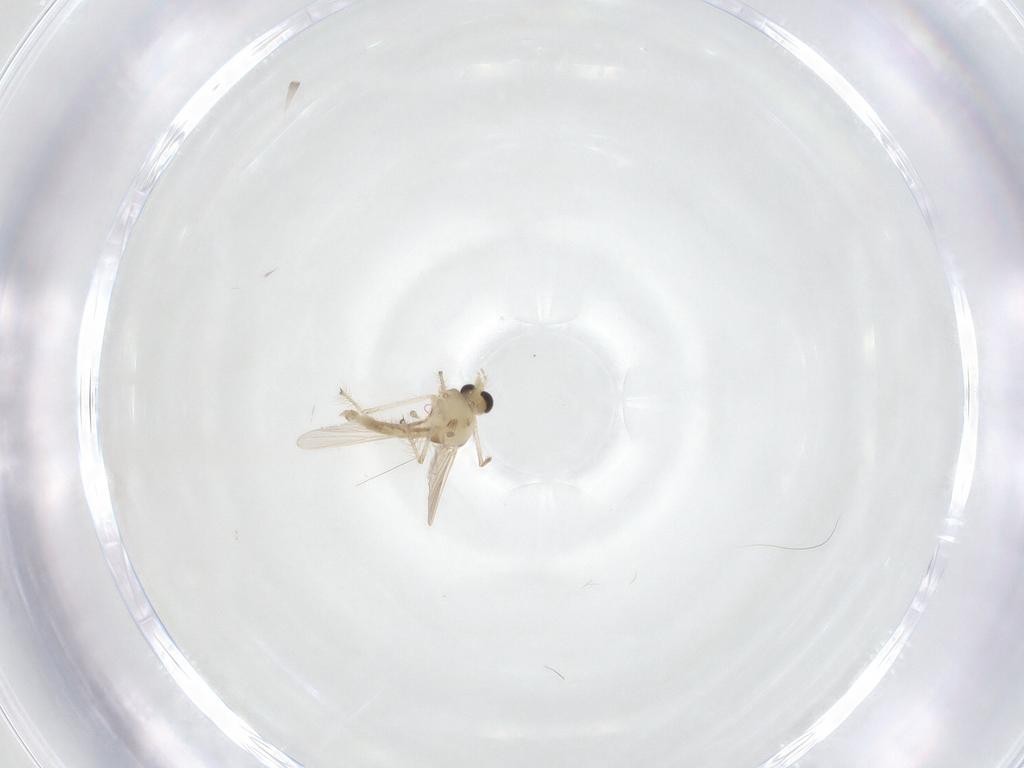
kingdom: Animalia
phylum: Arthropoda
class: Insecta
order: Diptera
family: Chironomidae
